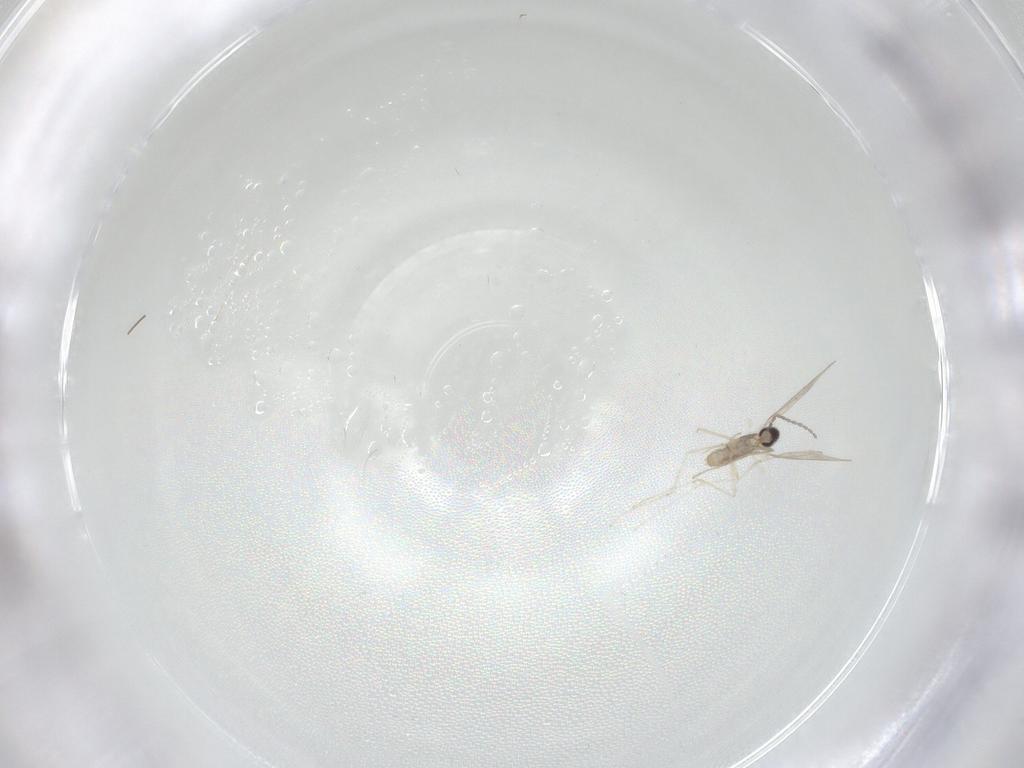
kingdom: Animalia
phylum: Arthropoda
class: Insecta
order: Diptera
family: Cecidomyiidae
